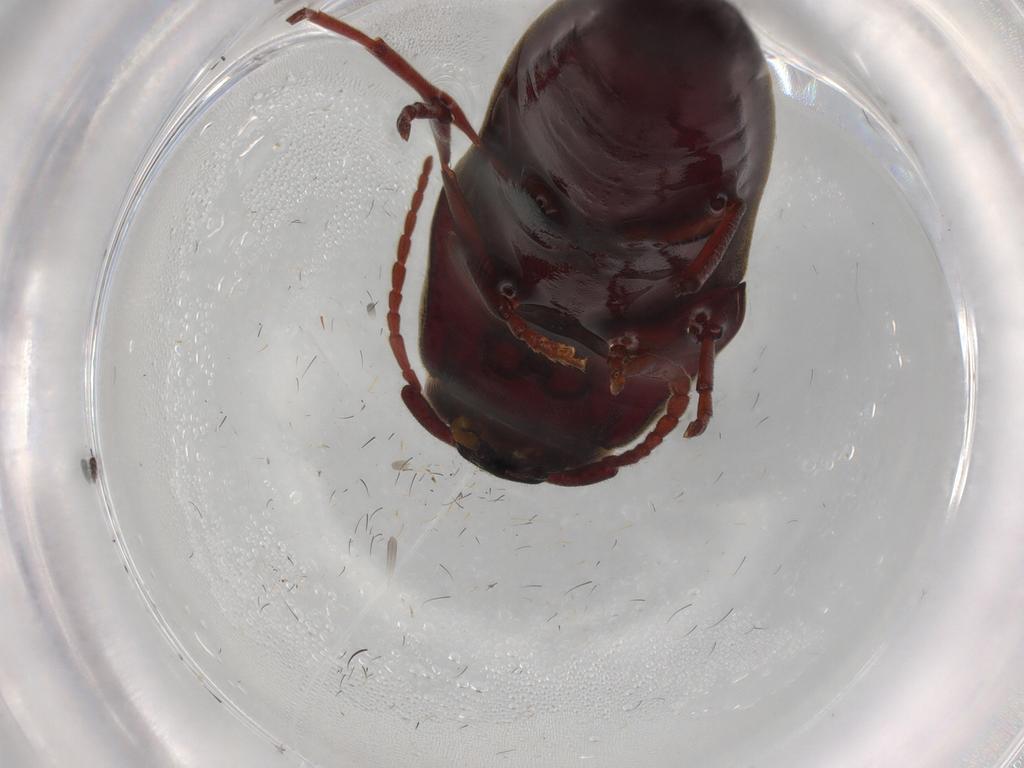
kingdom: Animalia
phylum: Arthropoda
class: Insecta
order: Coleoptera
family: Eucnemidae
